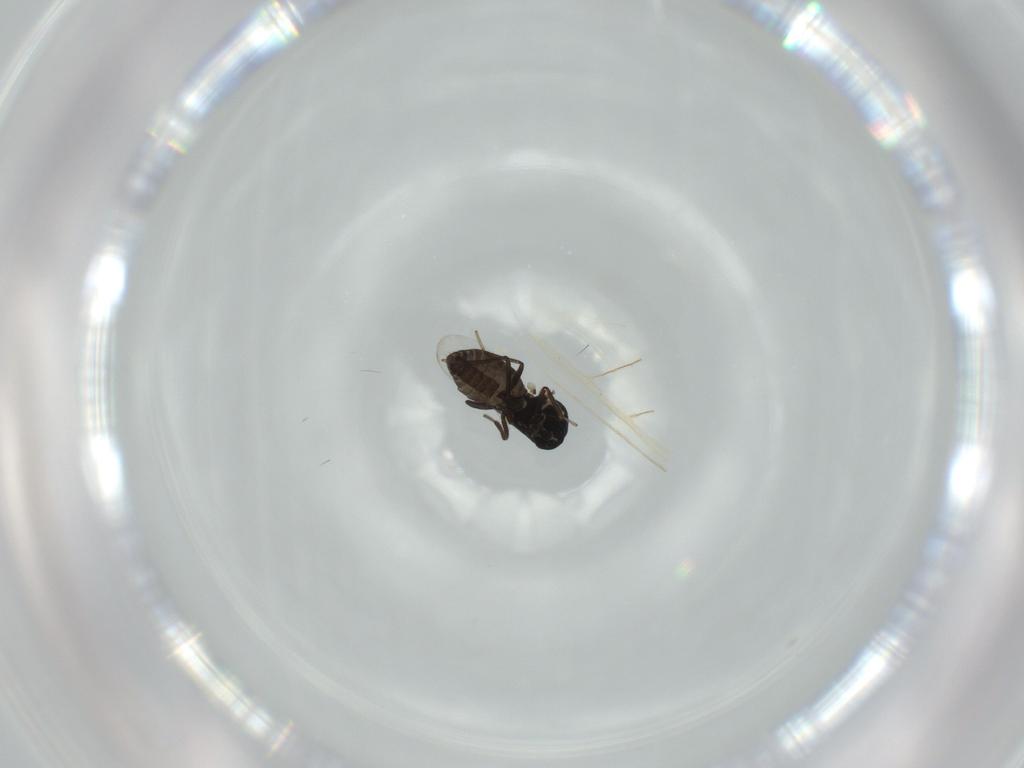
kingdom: Animalia
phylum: Arthropoda
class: Insecta
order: Diptera
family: Ceratopogonidae
